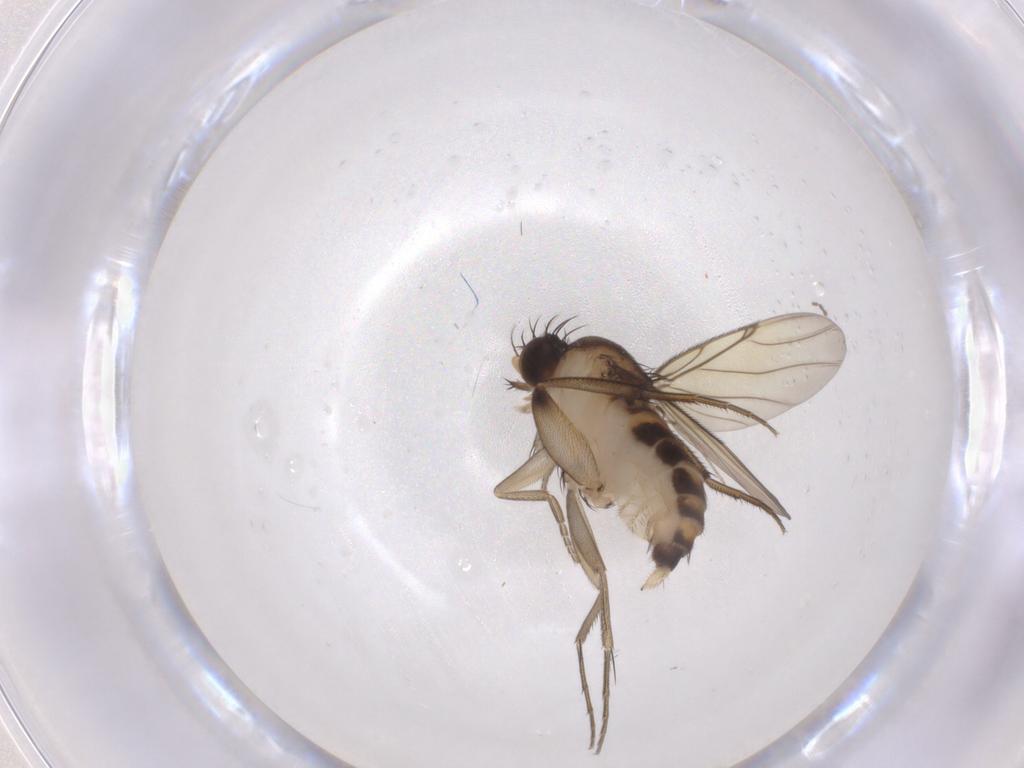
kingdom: Animalia
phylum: Arthropoda
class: Insecta
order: Diptera
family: Phoridae
